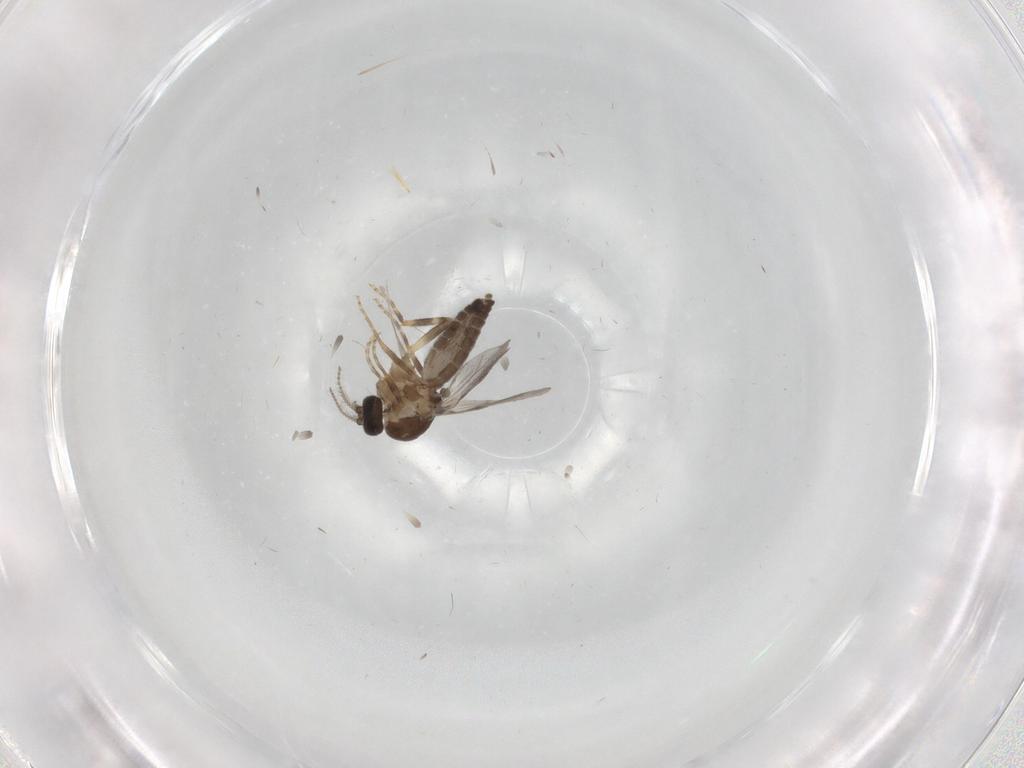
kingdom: Animalia
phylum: Arthropoda
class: Insecta
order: Diptera
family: Ceratopogonidae
